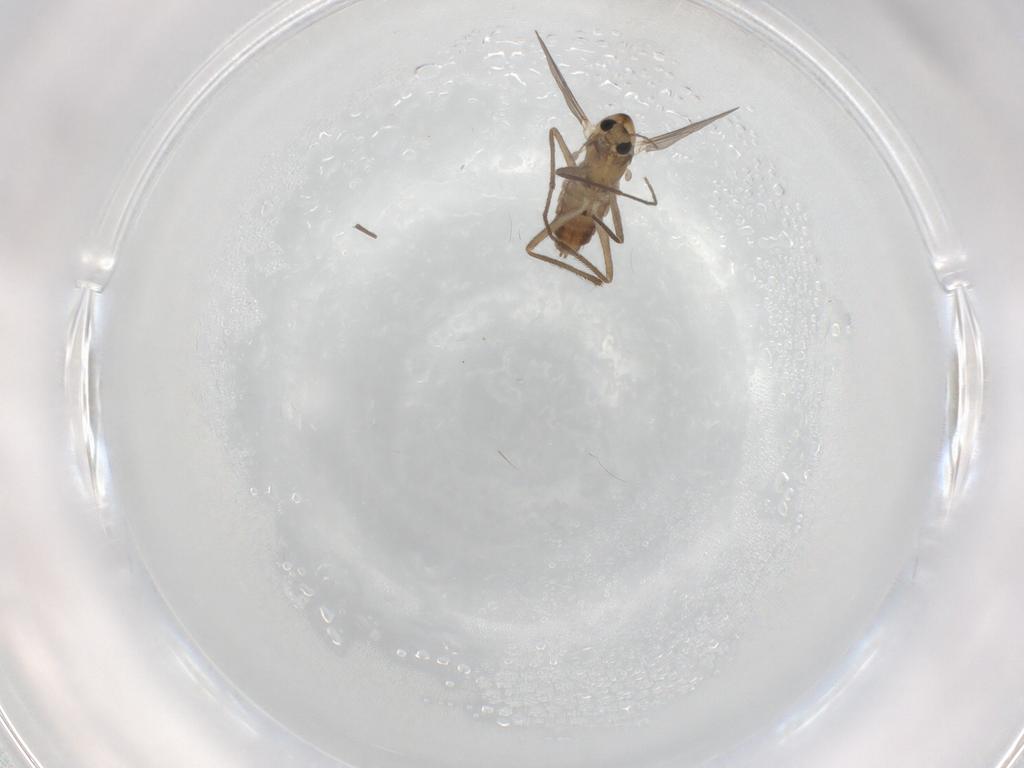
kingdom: Animalia
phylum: Arthropoda
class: Insecta
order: Diptera
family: Chironomidae
